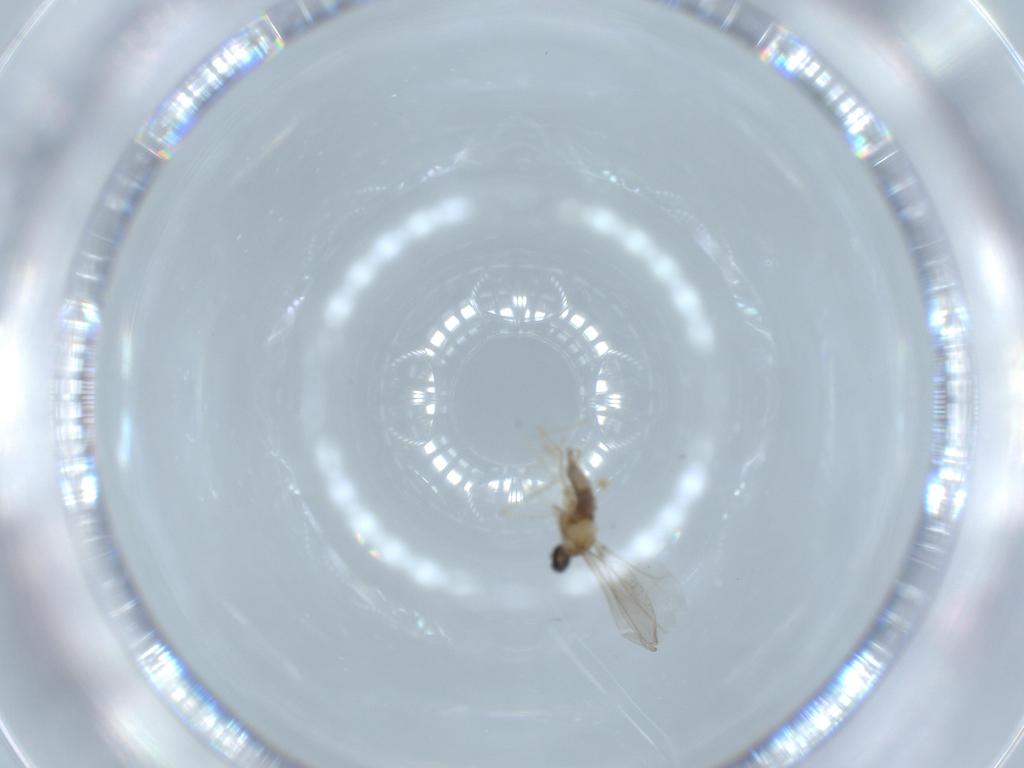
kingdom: Animalia
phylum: Arthropoda
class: Insecta
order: Diptera
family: Cecidomyiidae
